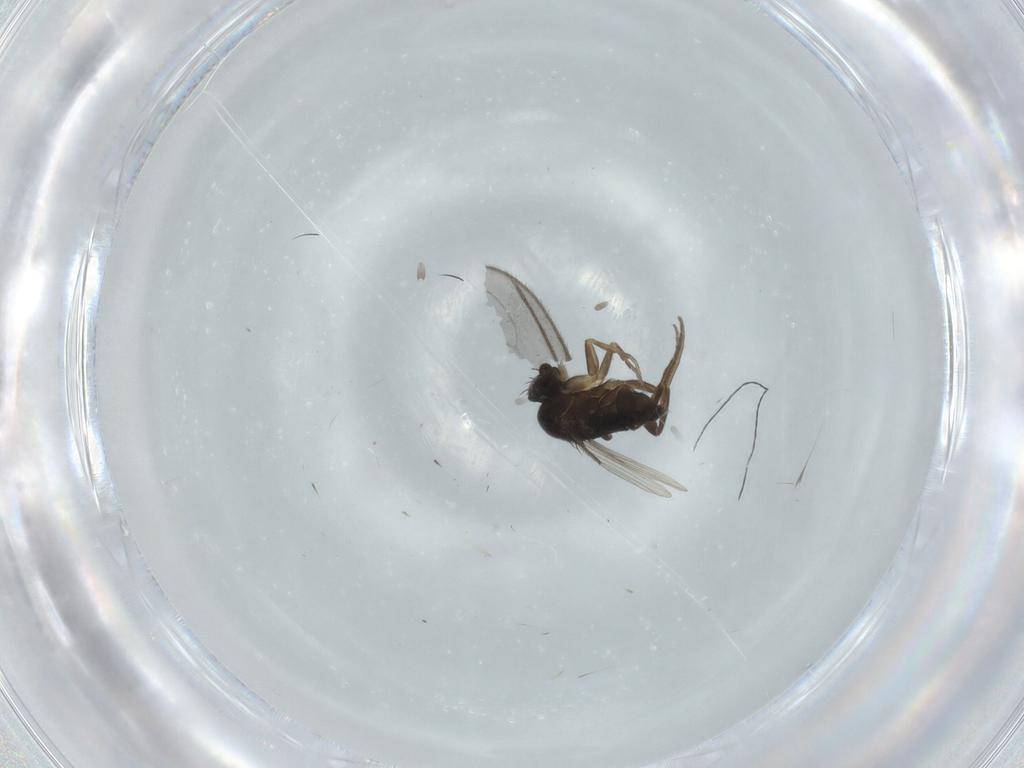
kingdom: Animalia
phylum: Arthropoda
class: Insecta
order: Diptera
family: Phoridae
